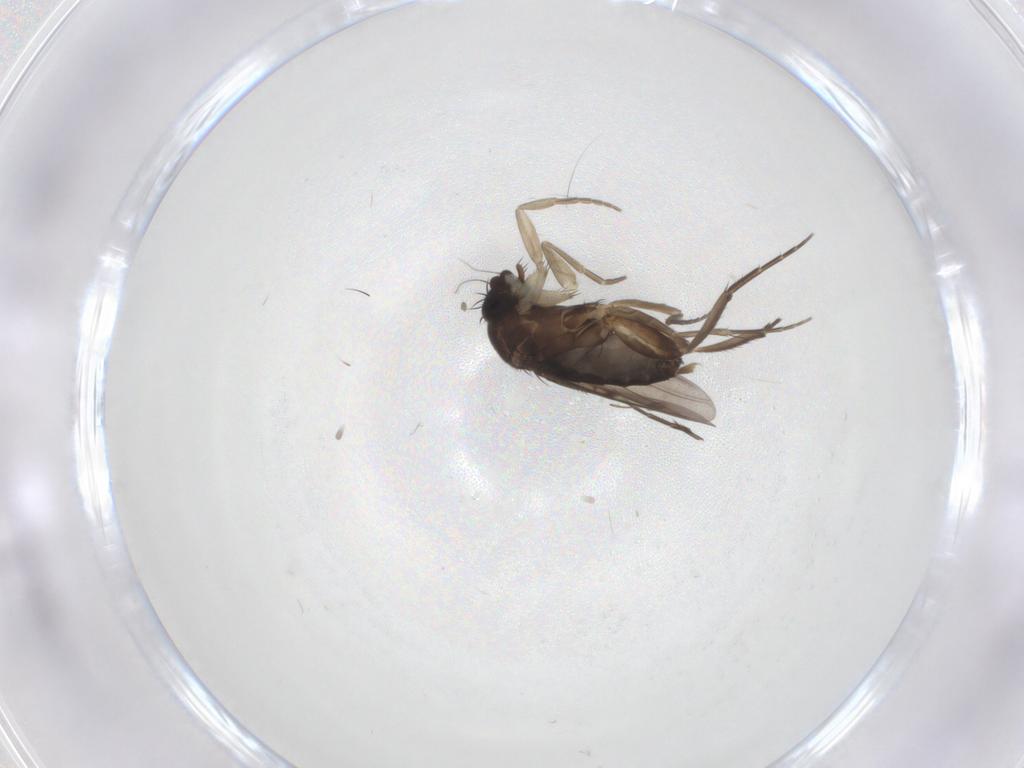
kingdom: Animalia
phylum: Arthropoda
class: Insecta
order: Diptera
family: Phoridae
